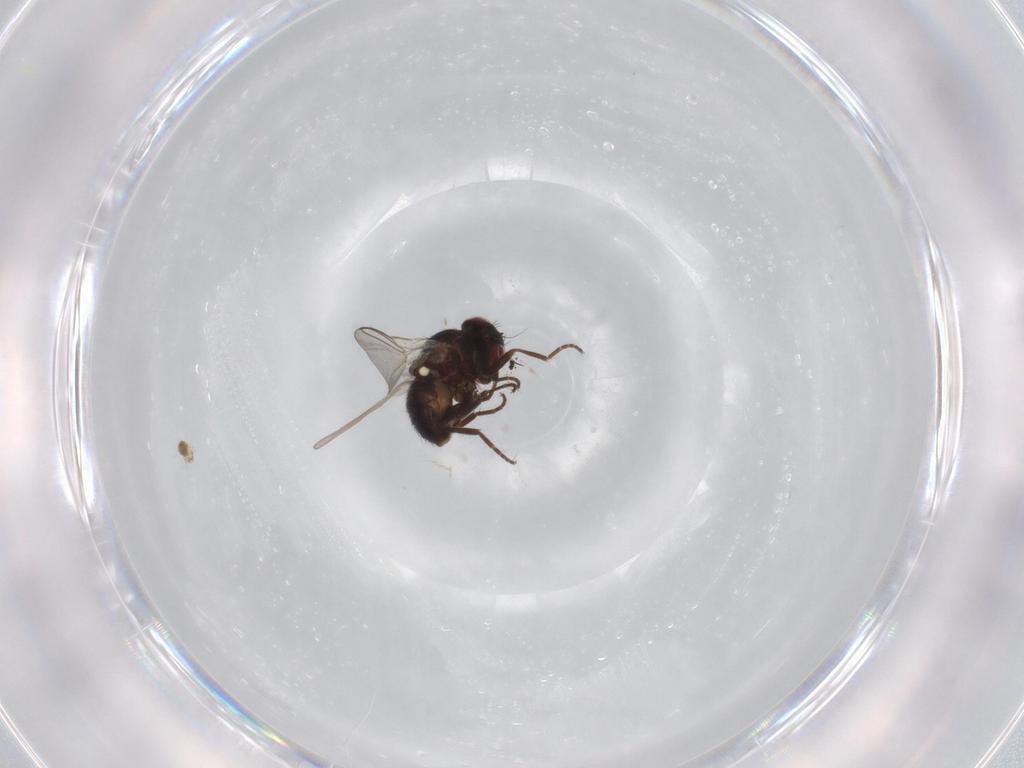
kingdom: Animalia
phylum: Arthropoda
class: Insecta
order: Diptera
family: Dolichopodidae
